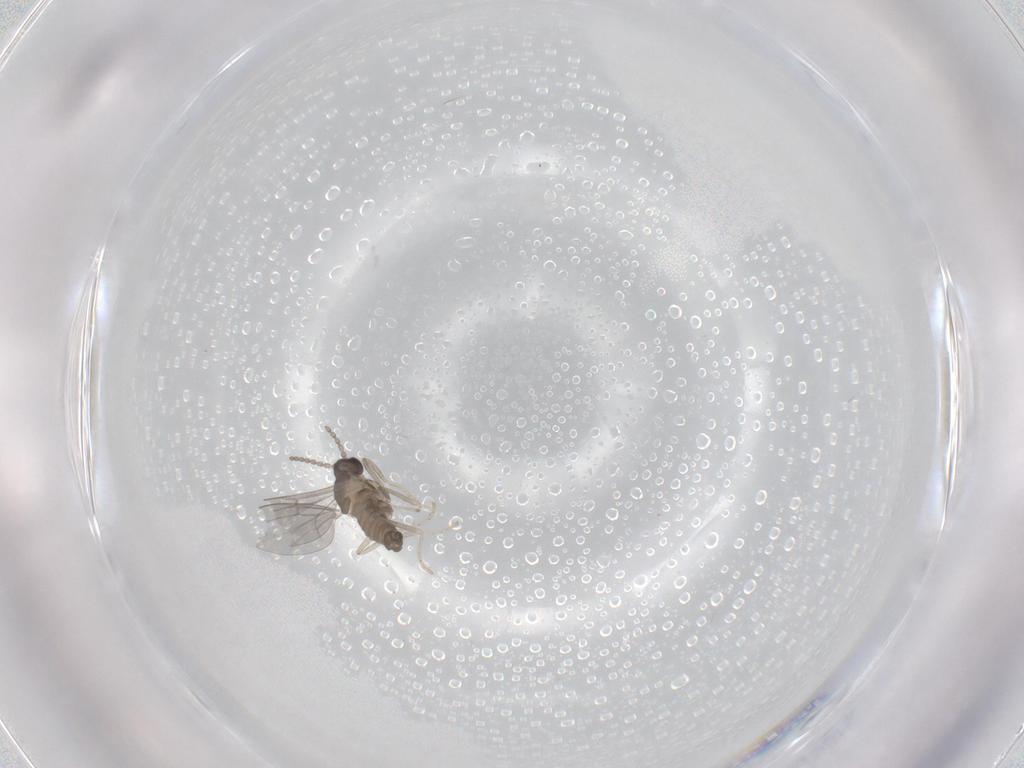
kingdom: Animalia
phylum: Arthropoda
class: Insecta
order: Diptera
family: Cecidomyiidae
